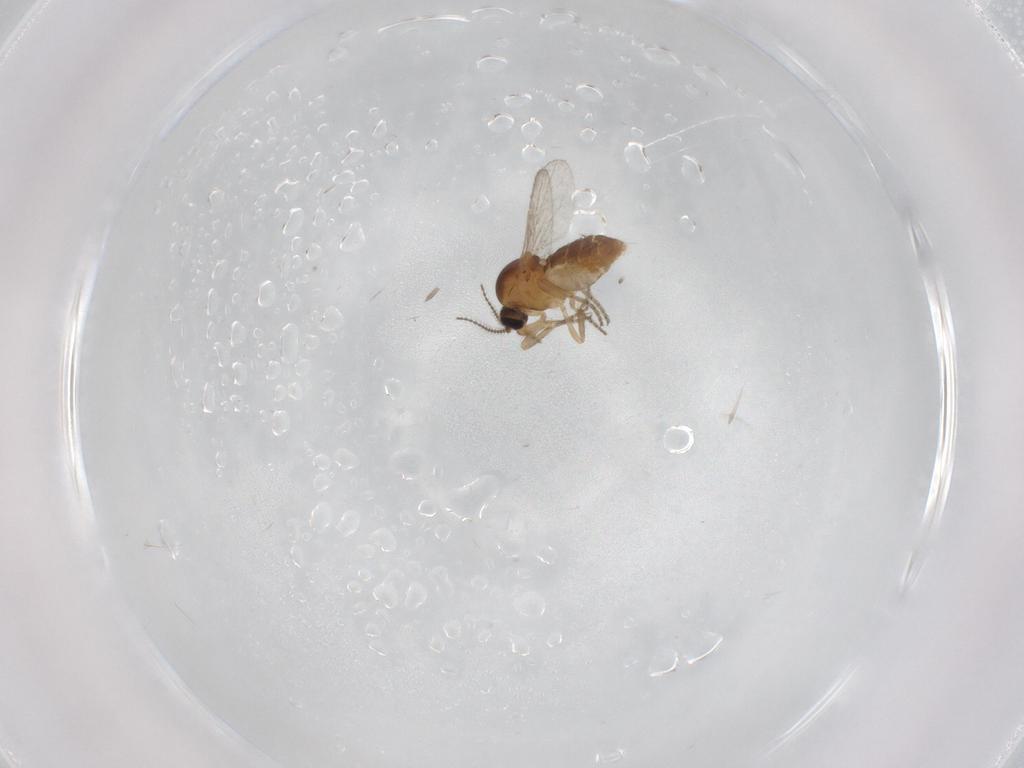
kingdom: Animalia
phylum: Arthropoda
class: Insecta
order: Diptera
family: Ceratopogonidae
